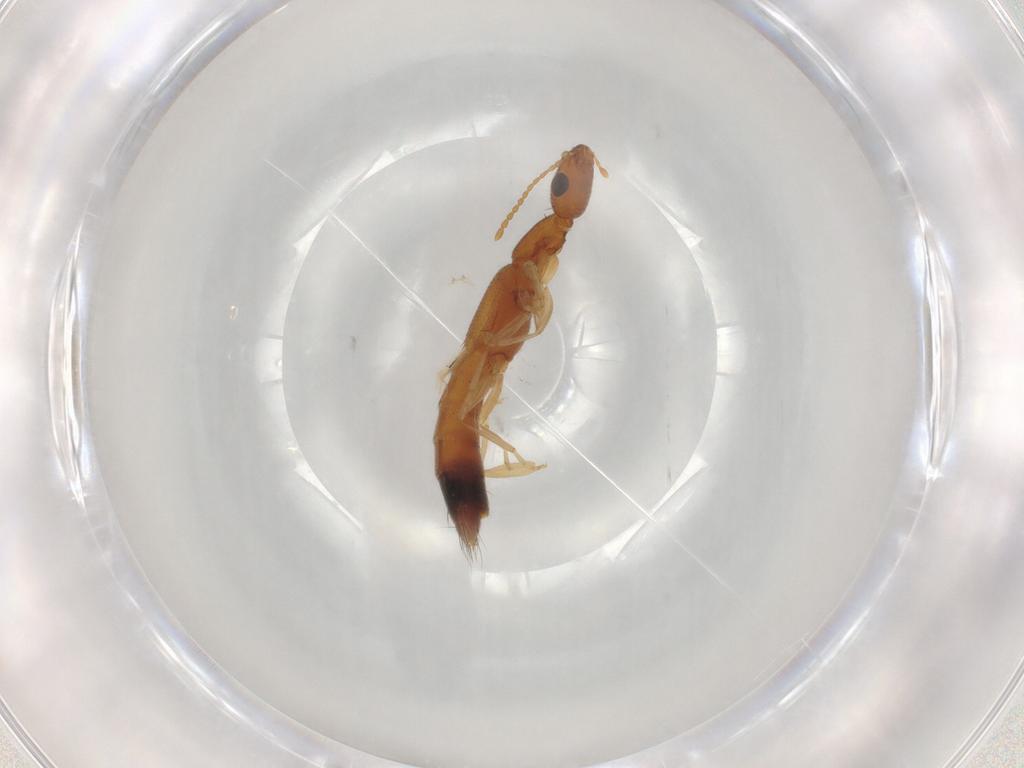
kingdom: Animalia
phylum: Arthropoda
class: Insecta
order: Coleoptera
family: Staphylinidae
